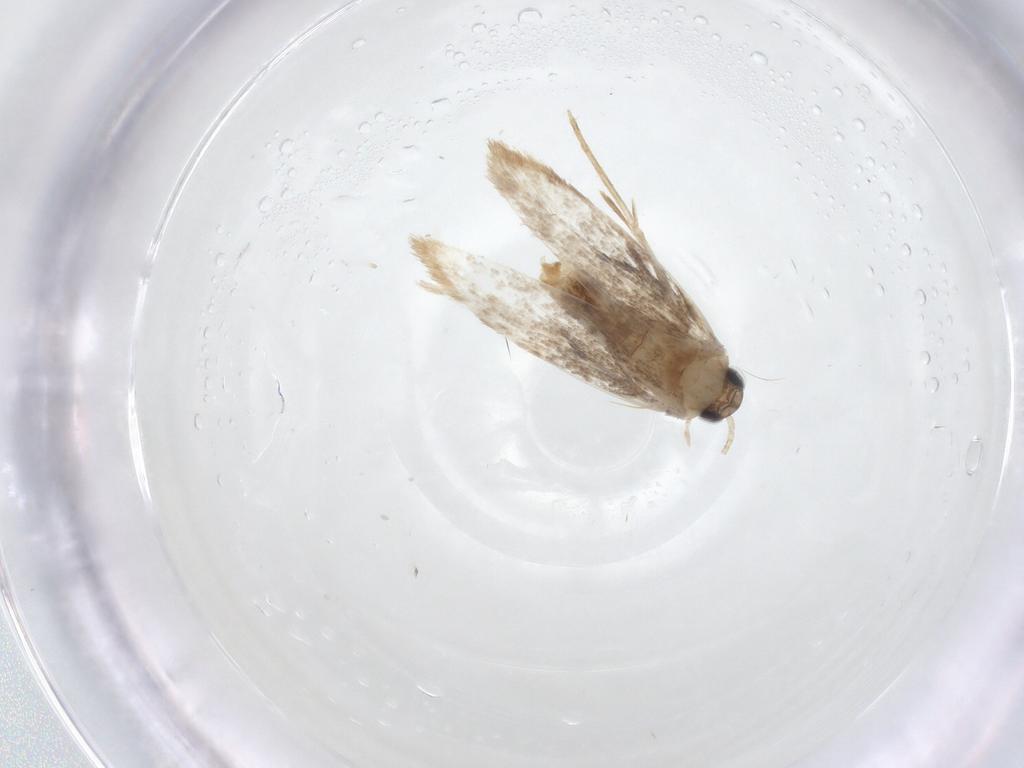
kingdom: Animalia
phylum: Arthropoda
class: Insecta
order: Lepidoptera
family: Dryadaulidae
